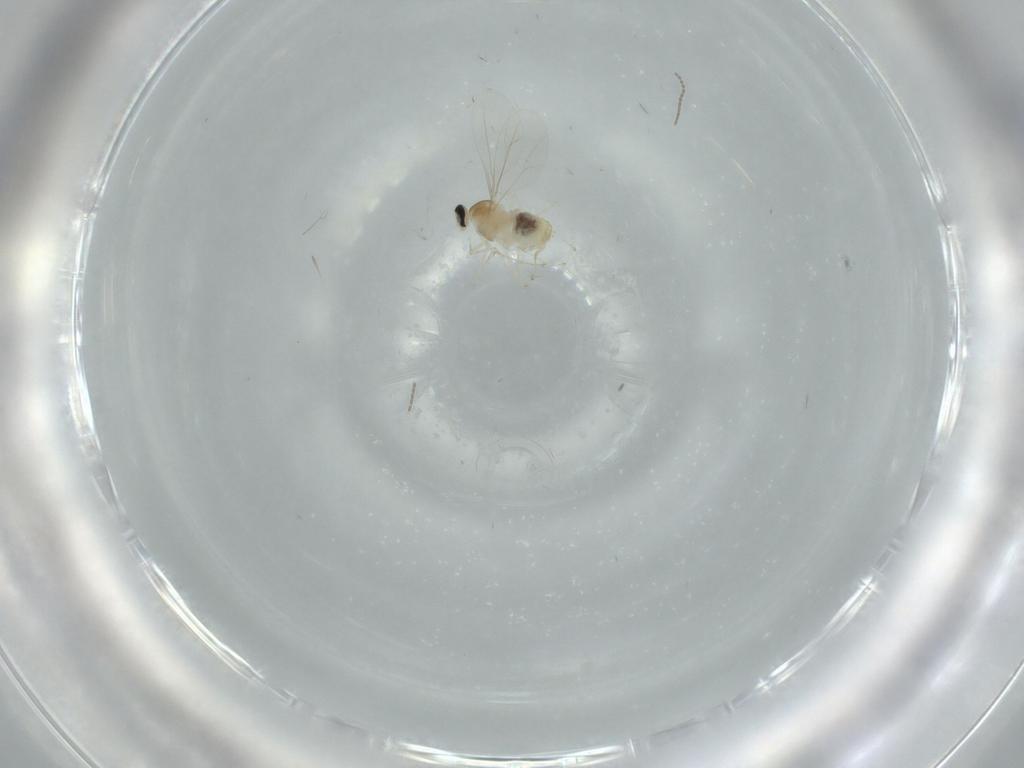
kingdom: Animalia
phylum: Arthropoda
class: Insecta
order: Diptera
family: Cecidomyiidae
